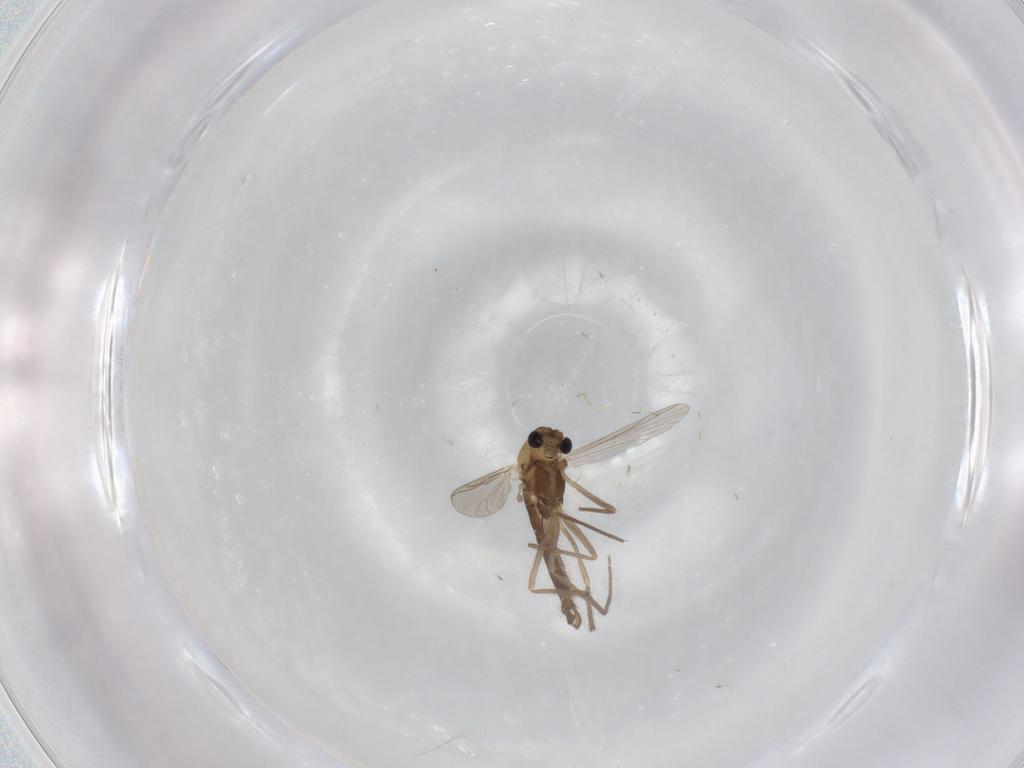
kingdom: Animalia
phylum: Arthropoda
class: Insecta
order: Diptera
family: Chironomidae
